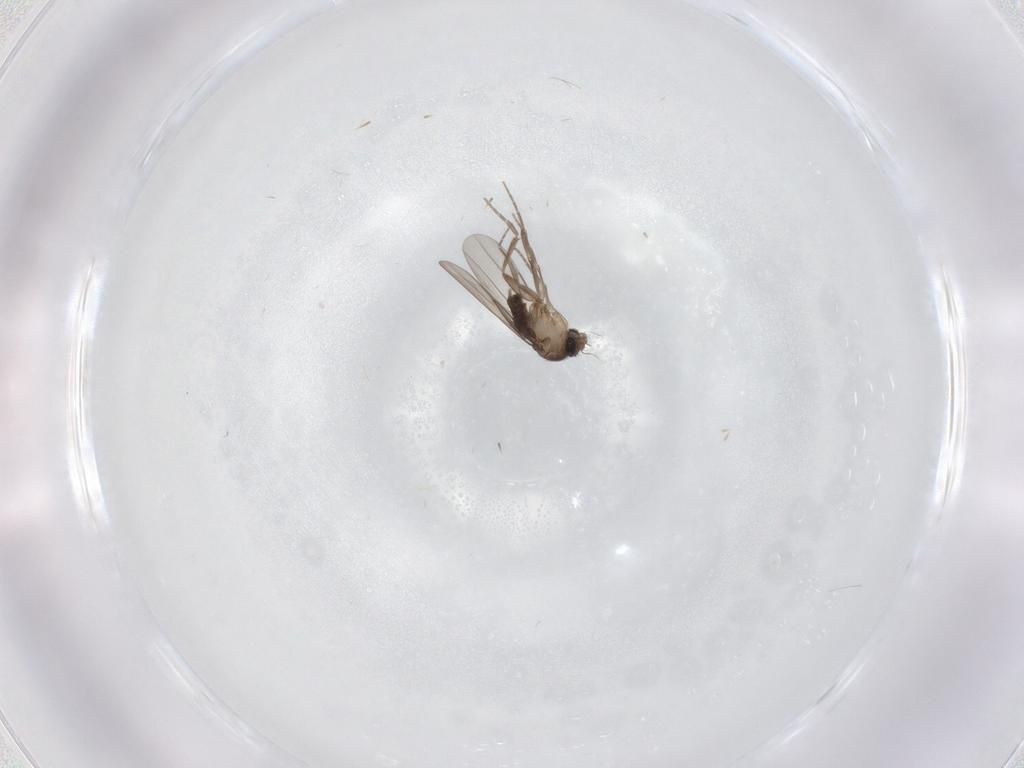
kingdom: Animalia
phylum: Arthropoda
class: Insecta
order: Diptera
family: Phoridae
